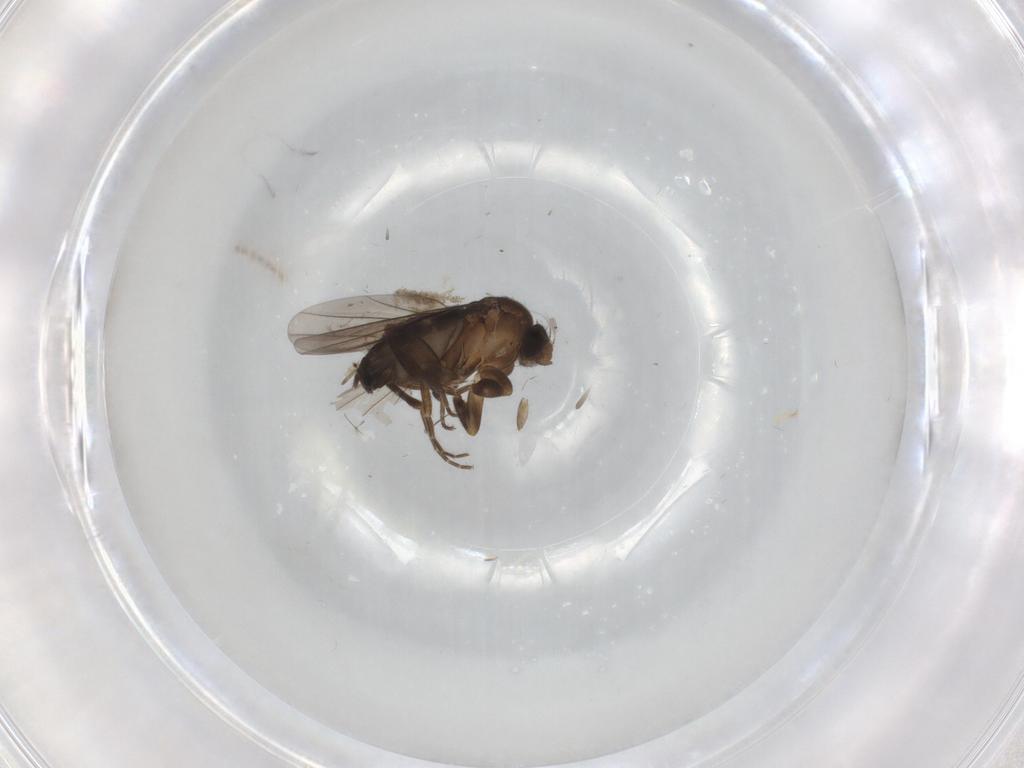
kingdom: Animalia
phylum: Arthropoda
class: Insecta
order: Diptera
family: Phoridae
